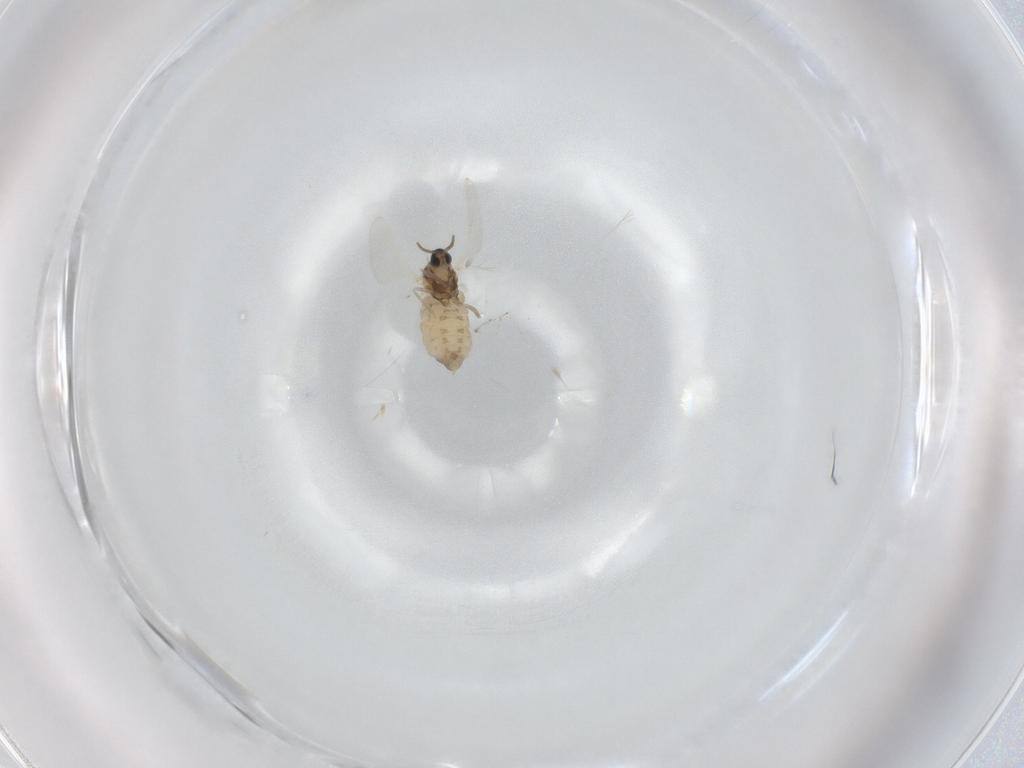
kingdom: Animalia
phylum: Arthropoda
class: Insecta
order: Diptera
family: Cecidomyiidae
